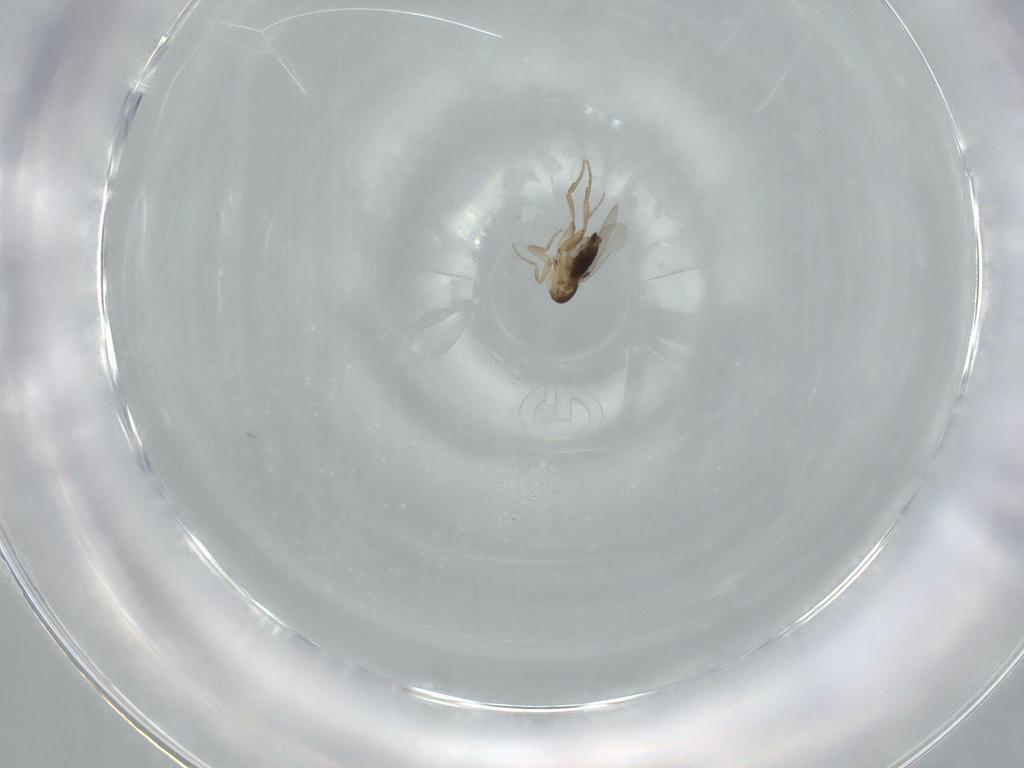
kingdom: Animalia
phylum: Arthropoda
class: Insecta
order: Diptera
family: Phoridae
